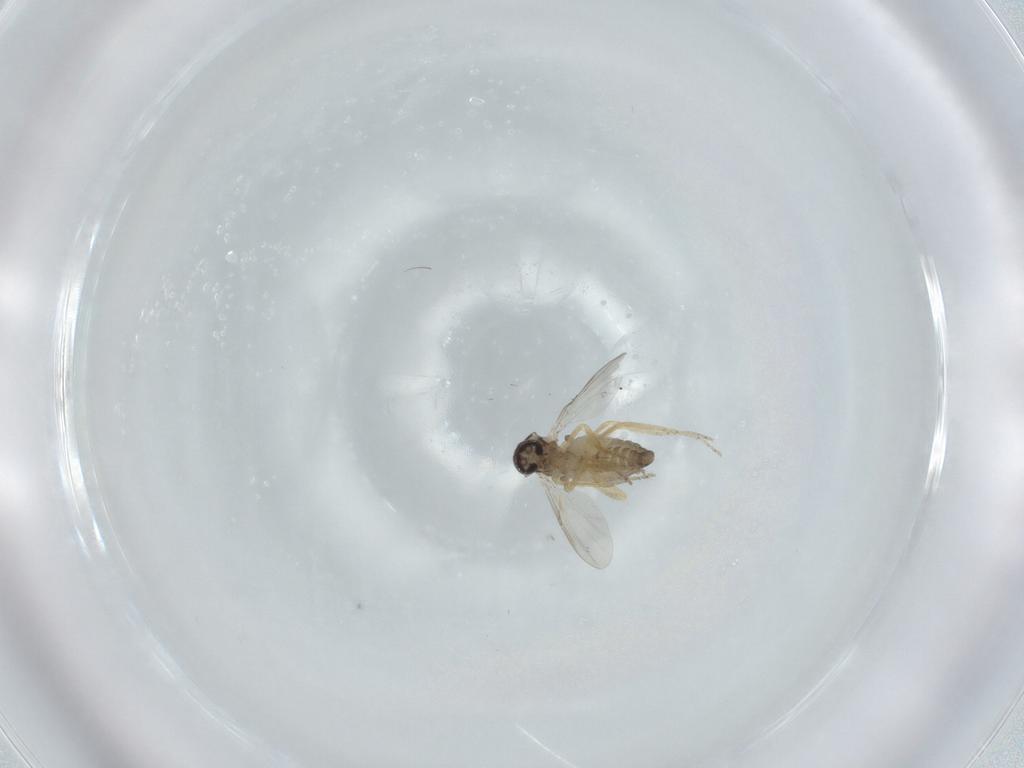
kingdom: Animalia
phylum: Arthropoda
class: Insecta
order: Diptera
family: Ceratopogonidae
